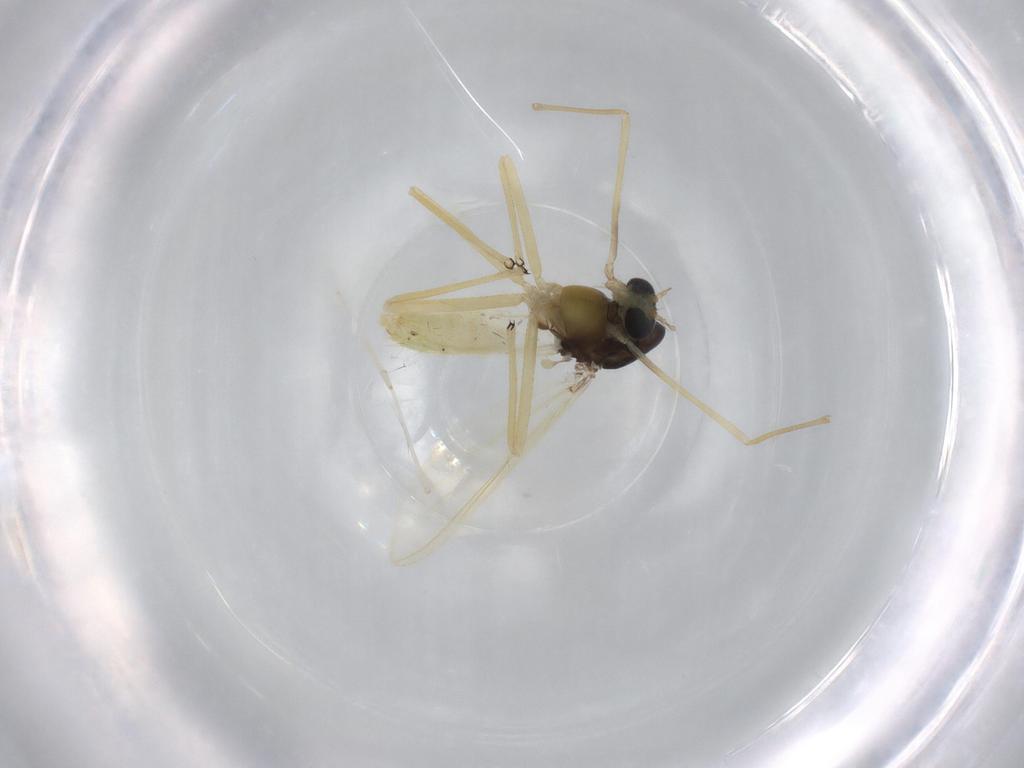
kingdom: Animalia
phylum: Arthropoda
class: Insecta
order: Diptera
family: Chironomidae
